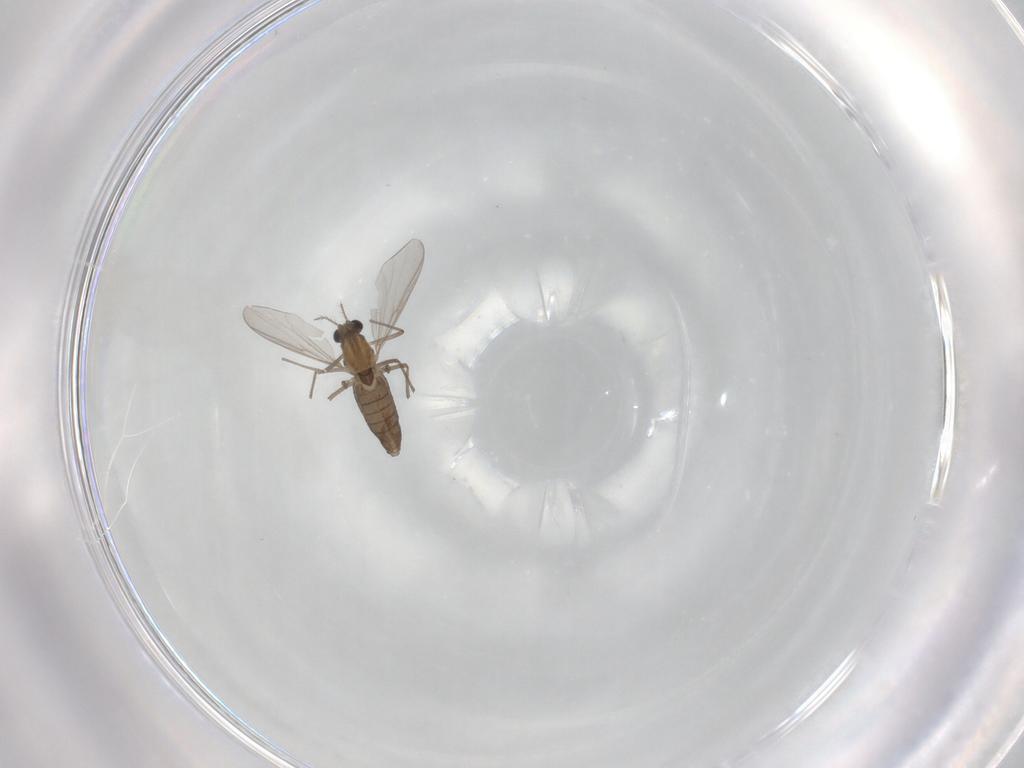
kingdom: Animalia
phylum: Arthropoda
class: Insecta
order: Diptera
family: Chironomidae
